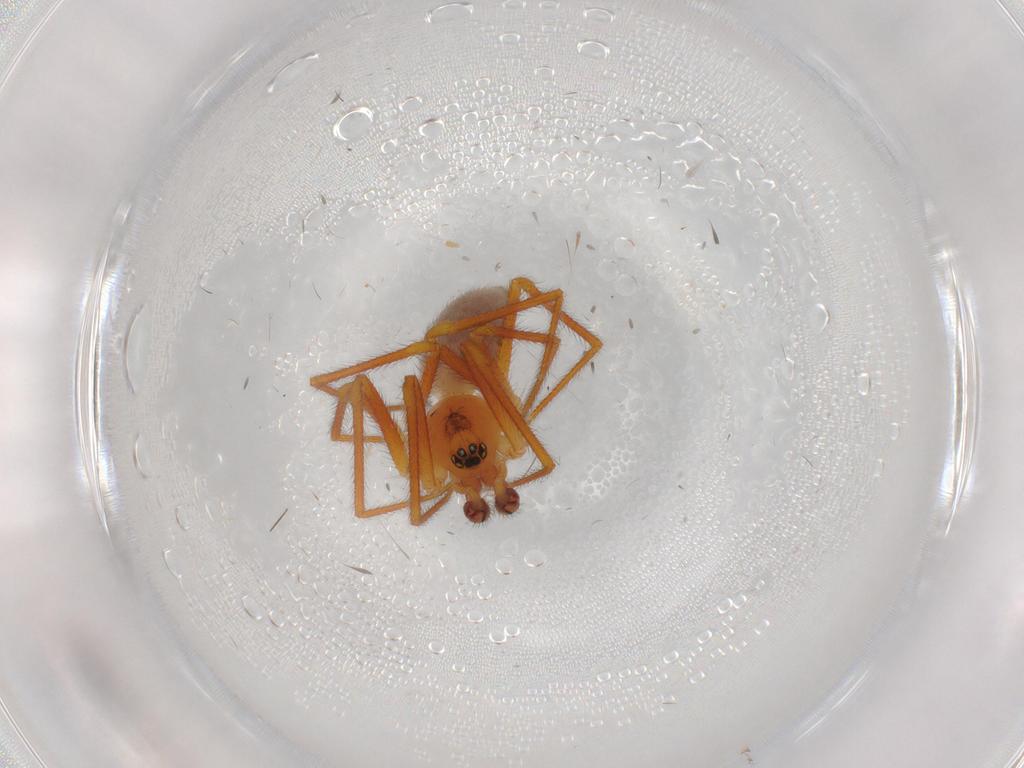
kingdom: Animalia
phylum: Arthropoda
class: Arachnida
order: Araneae
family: Linyphiidae
